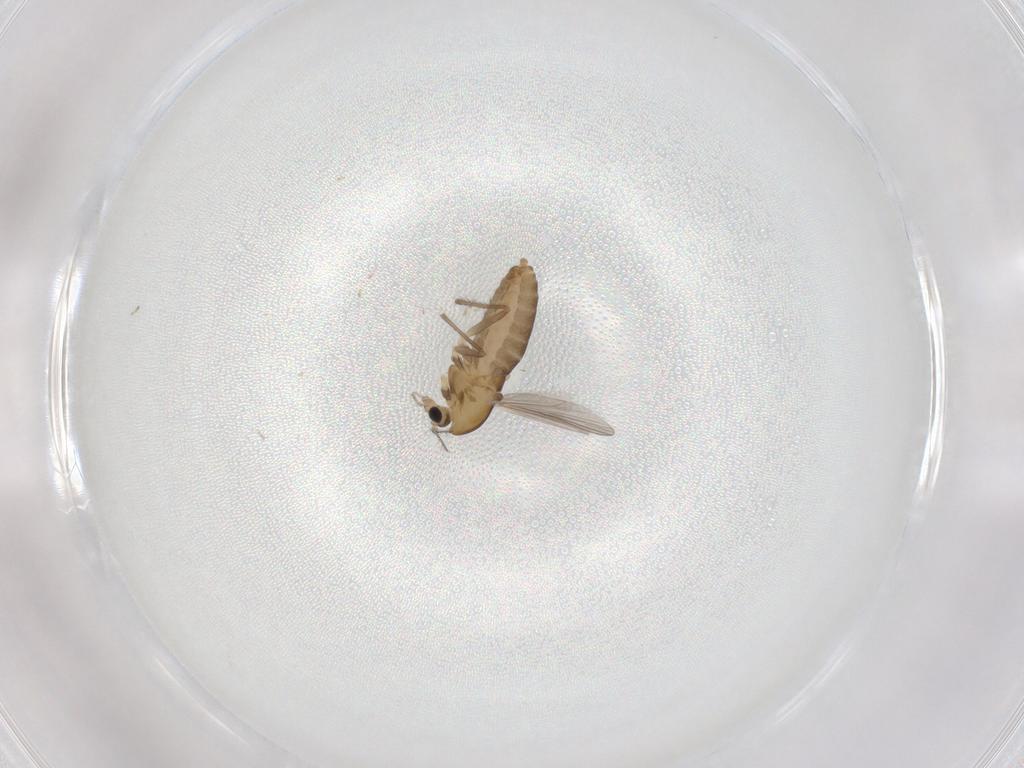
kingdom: Animalia
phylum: Arthropoda
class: Insecta
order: Diptera
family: Chironomidae
